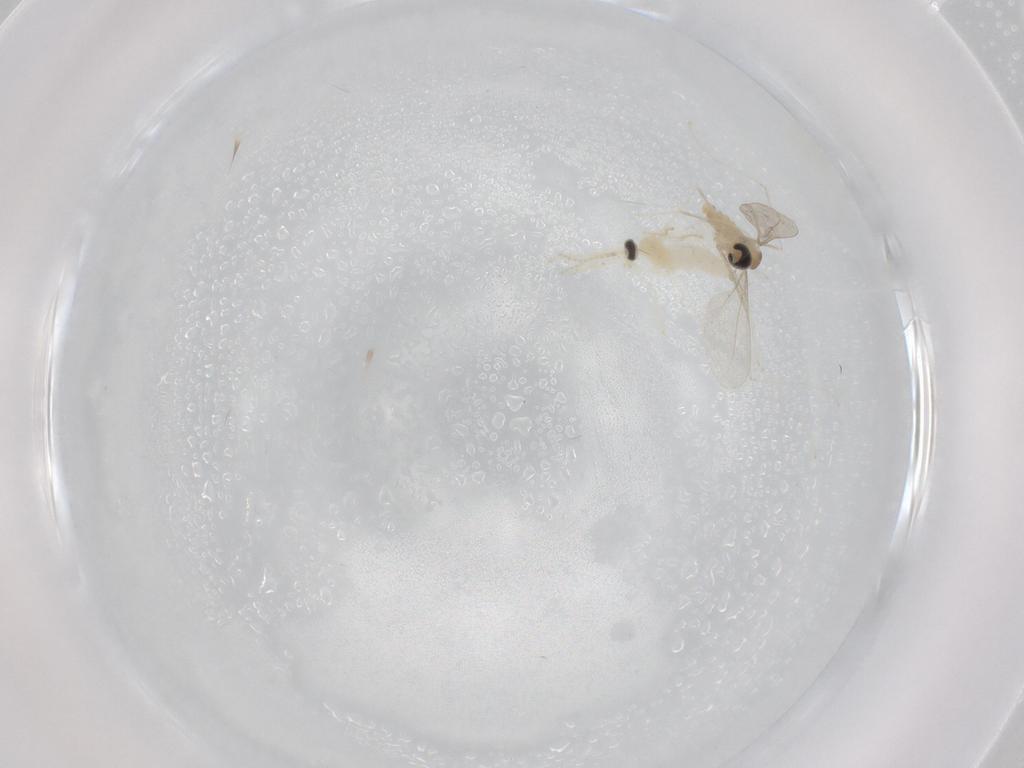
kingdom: Animalia
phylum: Arthropoda
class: Insecta
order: Diptera
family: Cecidomyiidae
